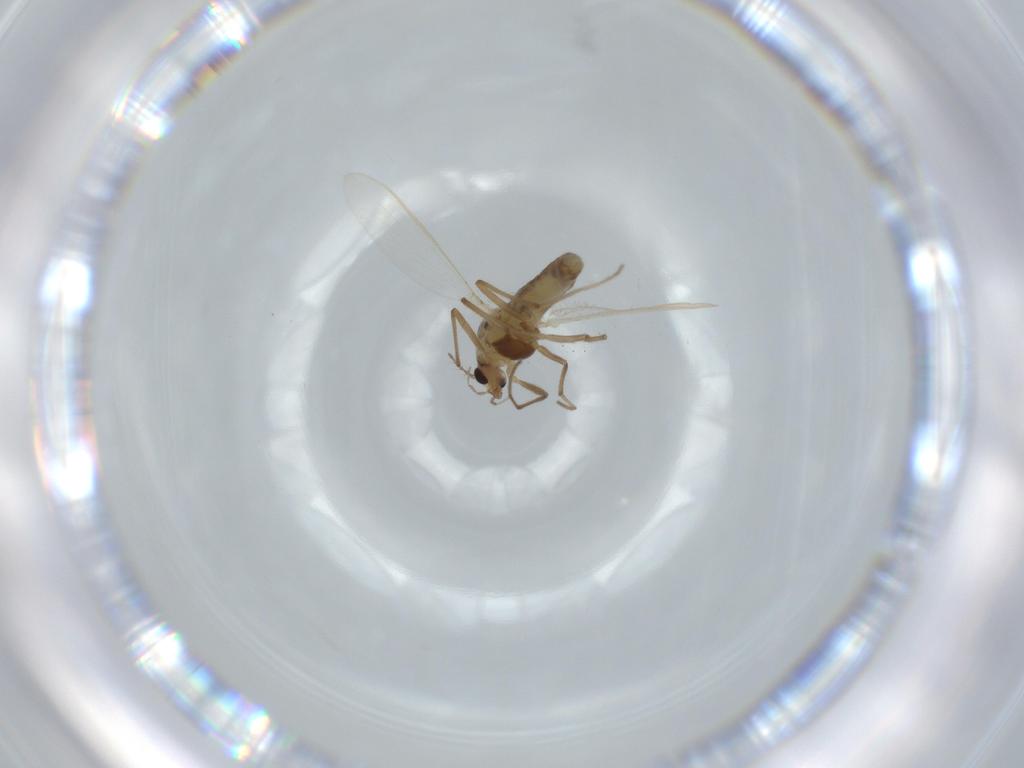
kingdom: Animalia
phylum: Arthropoda
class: Insecta
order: Diptera
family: Chironomidae
